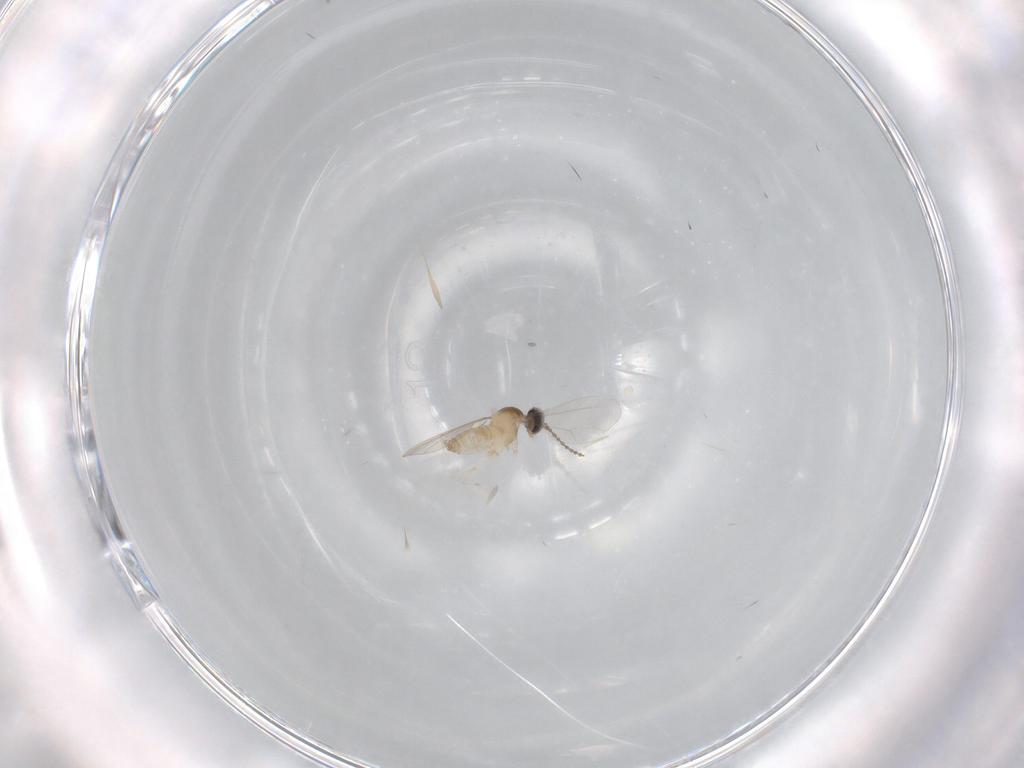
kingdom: Animalia
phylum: Arthropoda
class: Insecta
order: Diptera
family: Cecidomyiidae
